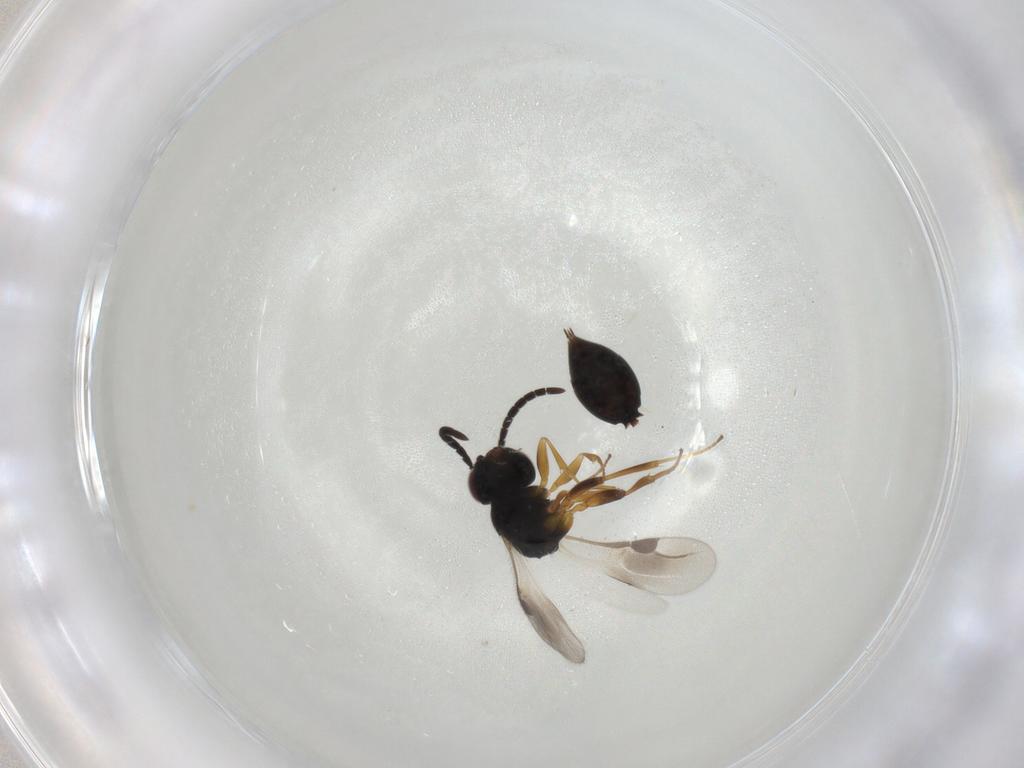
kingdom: Animalia
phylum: Arthropoda
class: Insecta
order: Hymenoptera
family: Megaspilidae
